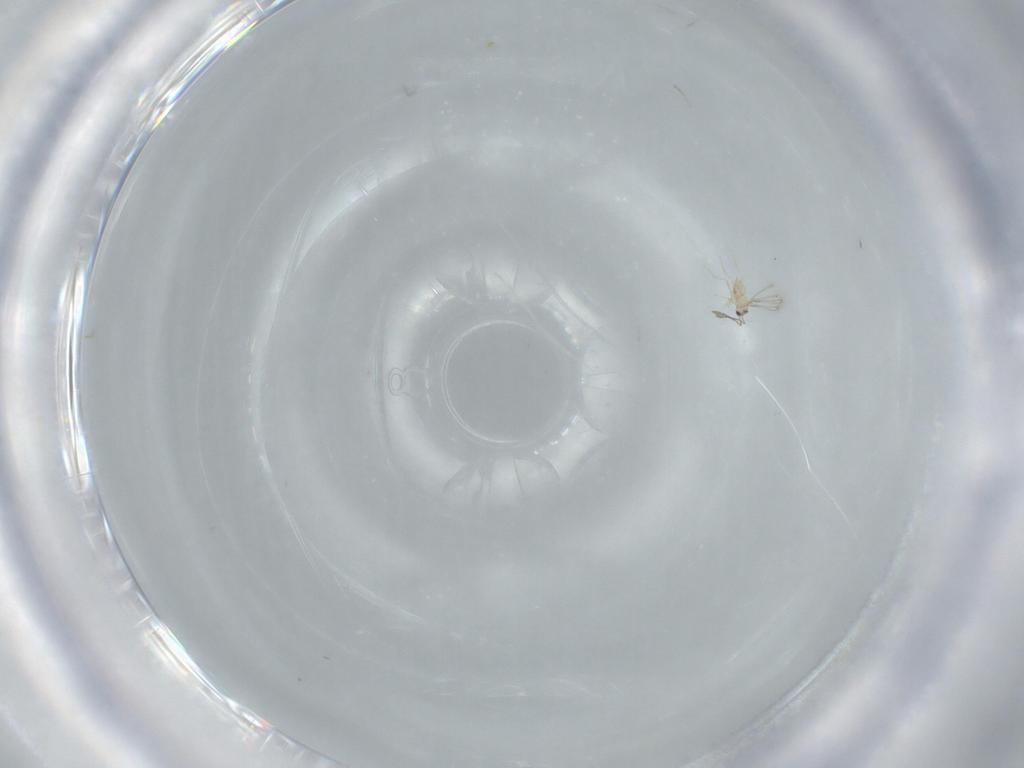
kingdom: Animalia
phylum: Arthropoda
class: Insecta
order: Hymenoptera
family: Mymaridae
